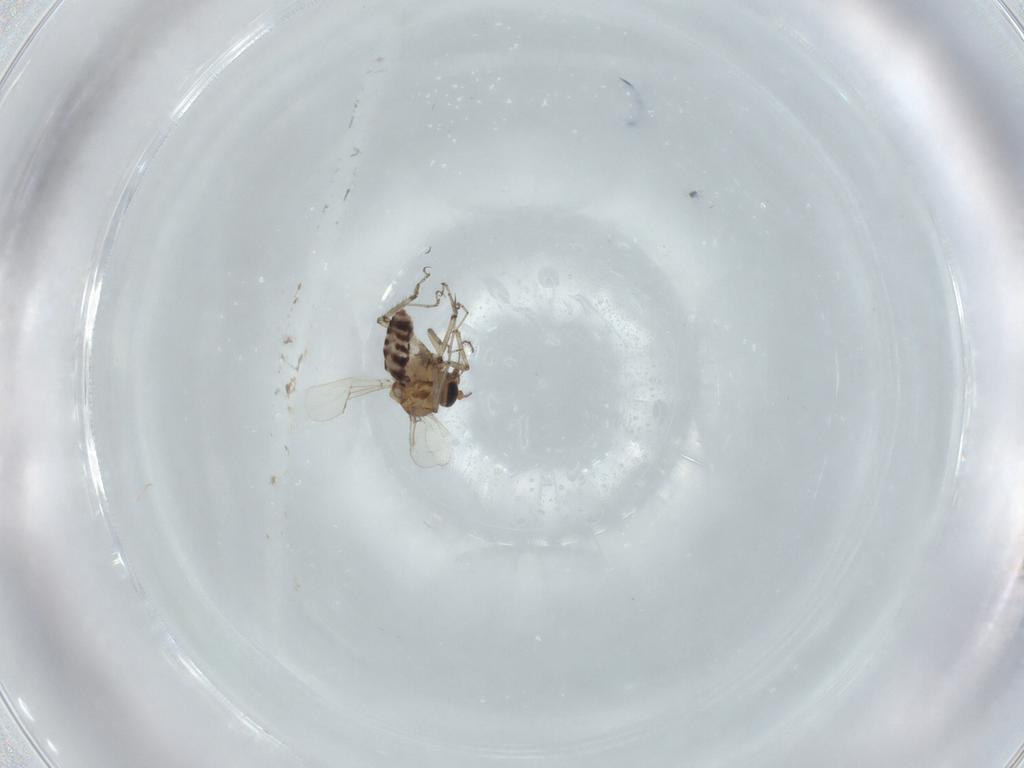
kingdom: Animalia
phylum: Arthropoda
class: Insecta
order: Diptera
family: Ceratopogonidae
